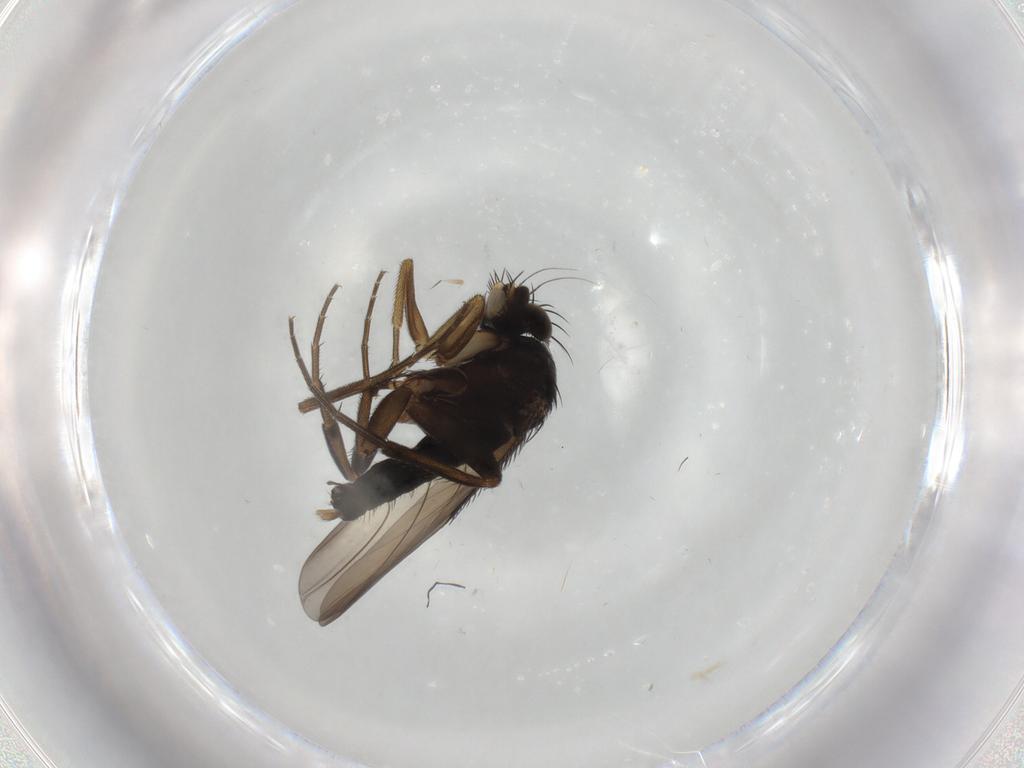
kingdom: Animalia
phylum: Arthropoda
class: Insecta
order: Diptera
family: Phoridae
